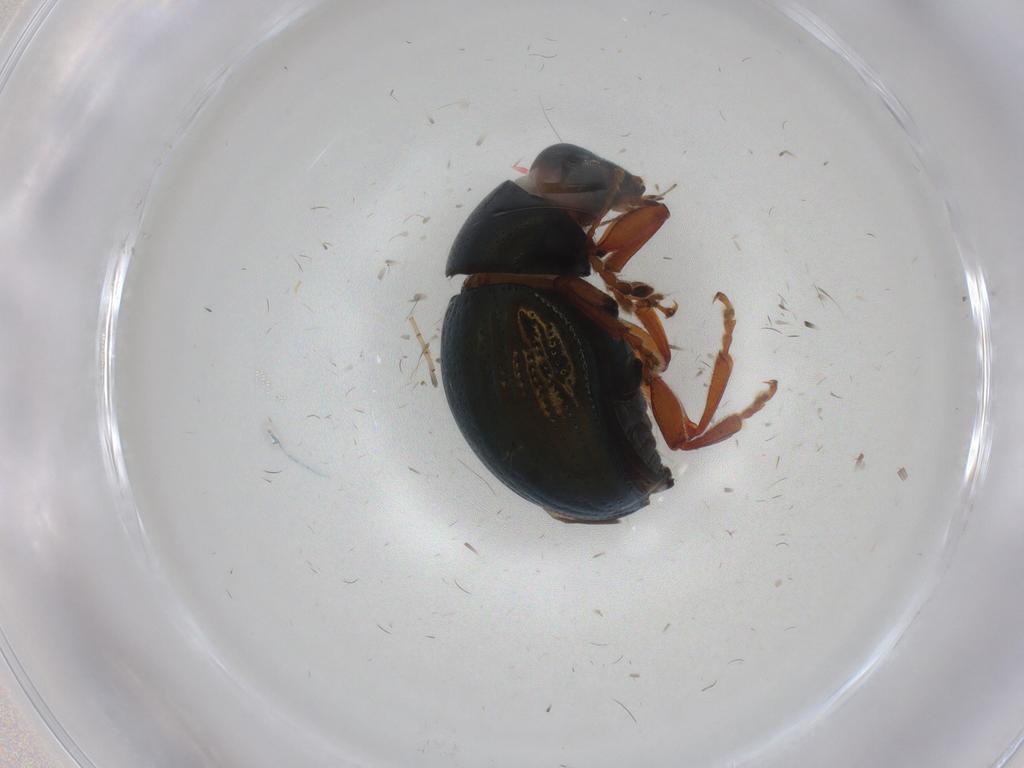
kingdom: Animalia
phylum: Arthropoda
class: Insecta
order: Coleoptera
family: Chrysomelidae
